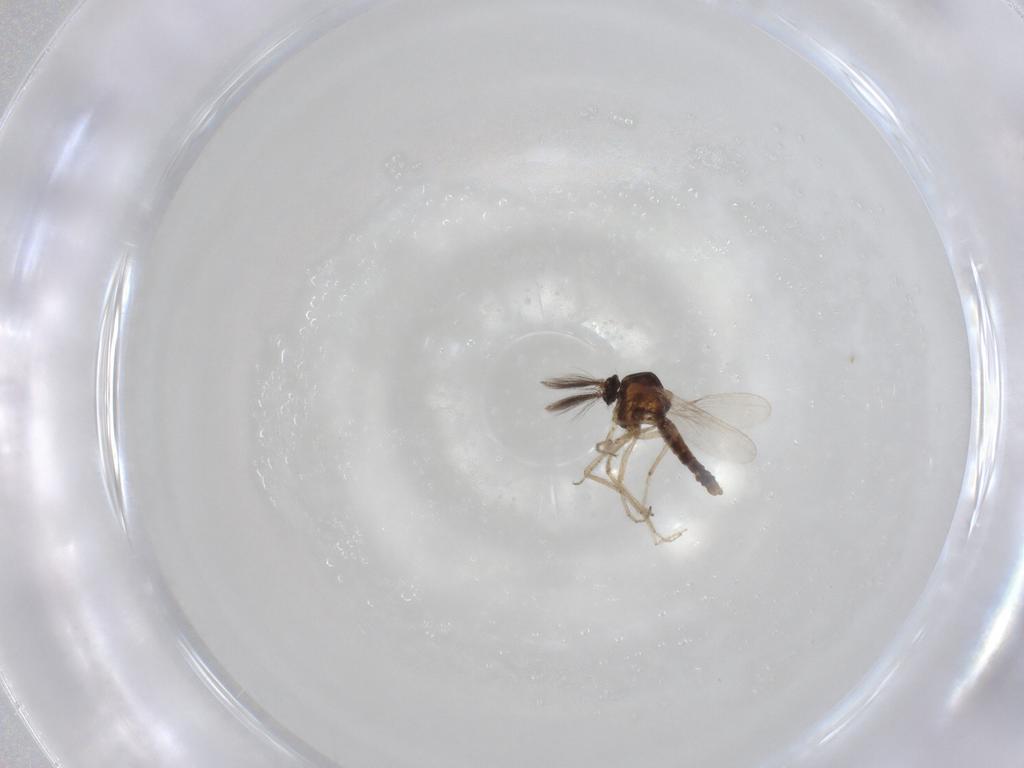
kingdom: Animalia
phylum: Arthropoda
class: Insecta
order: Diptera
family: Ceratopogonidae
